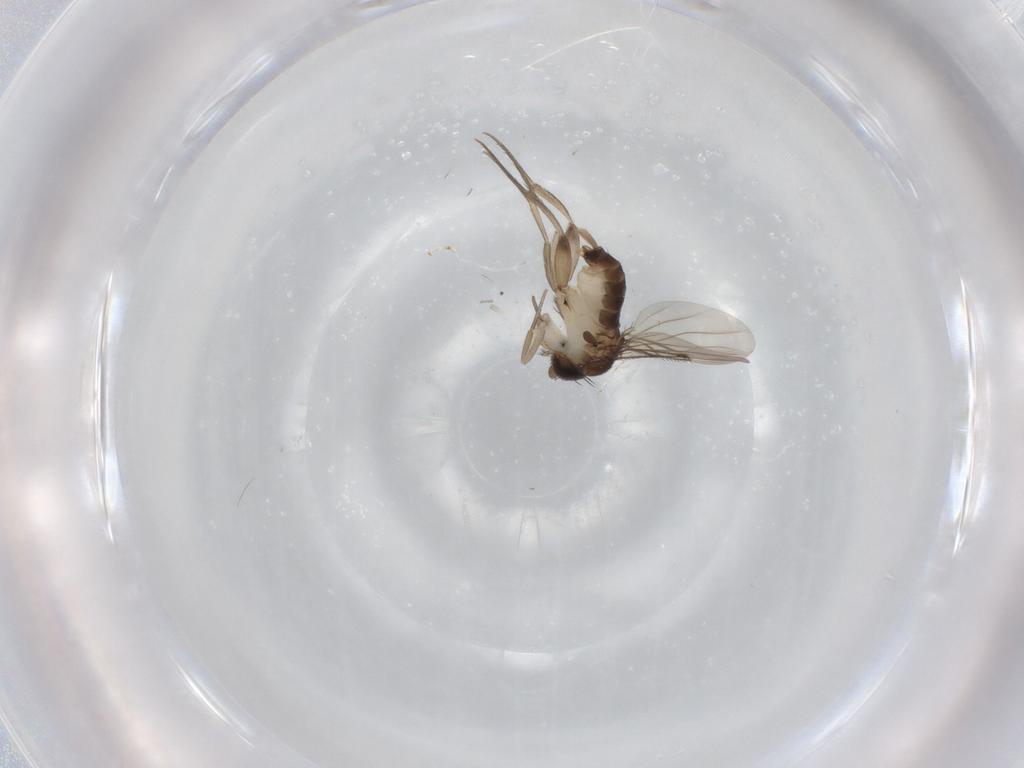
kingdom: Animalia
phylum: Arthropoda
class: Insecta
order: Diptera
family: Phoridae
